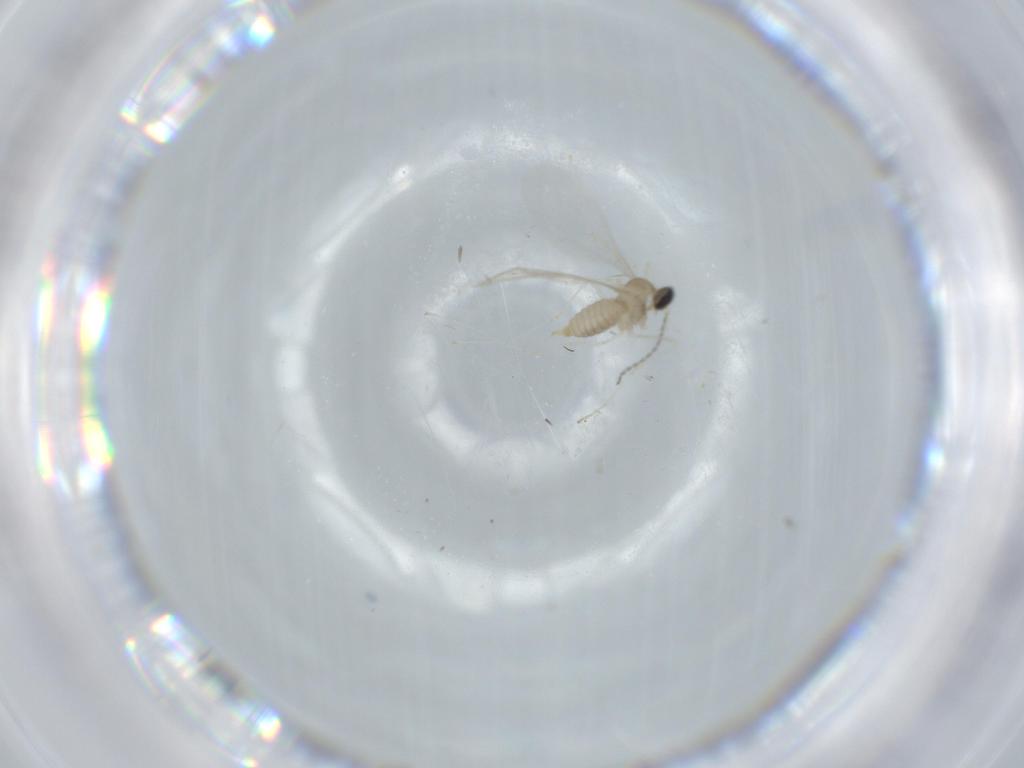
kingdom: Animalia
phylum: Arthropoda
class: Insecta
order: Diptera
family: Cecidomyiidae
